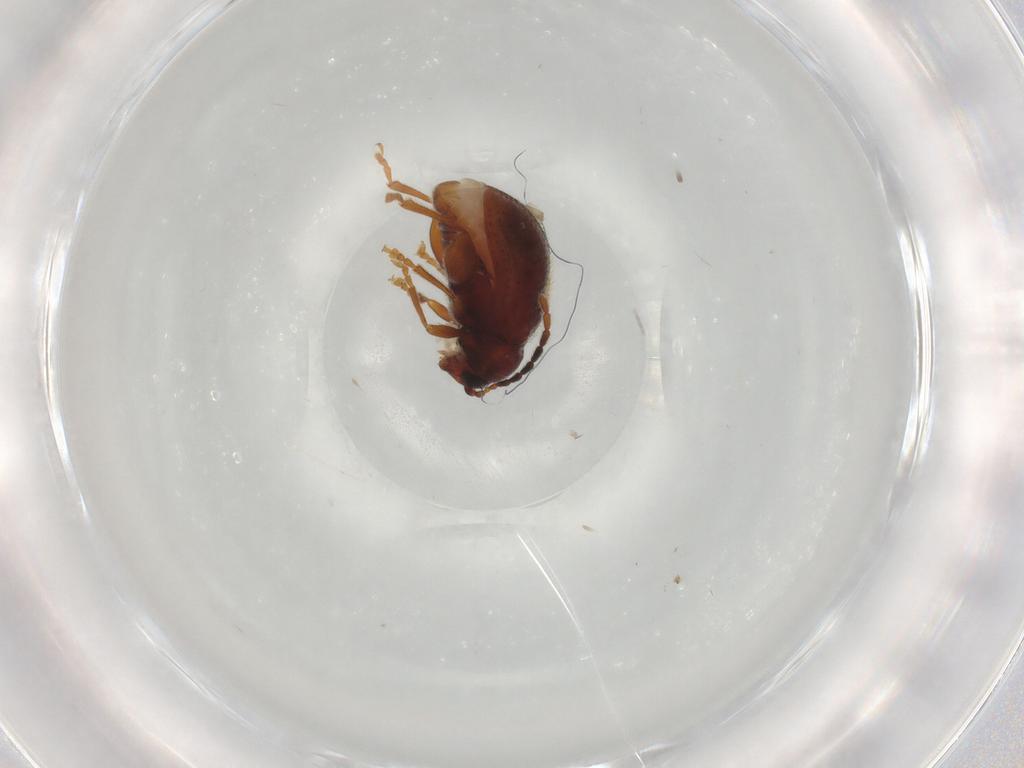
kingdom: Animalia
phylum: Arthropoda
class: Insecta
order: Coleoptera
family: Chrysomelidae
